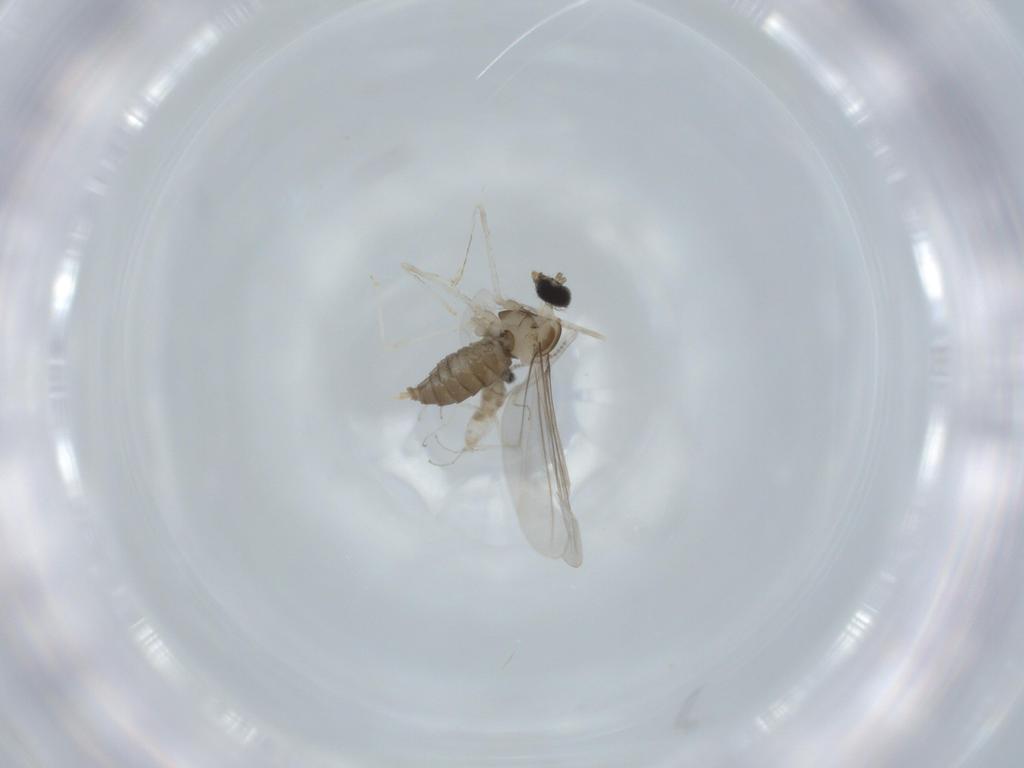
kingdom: Animalia
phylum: Arthropoda
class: Insecta
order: Diptera
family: Cecidomyiidae
